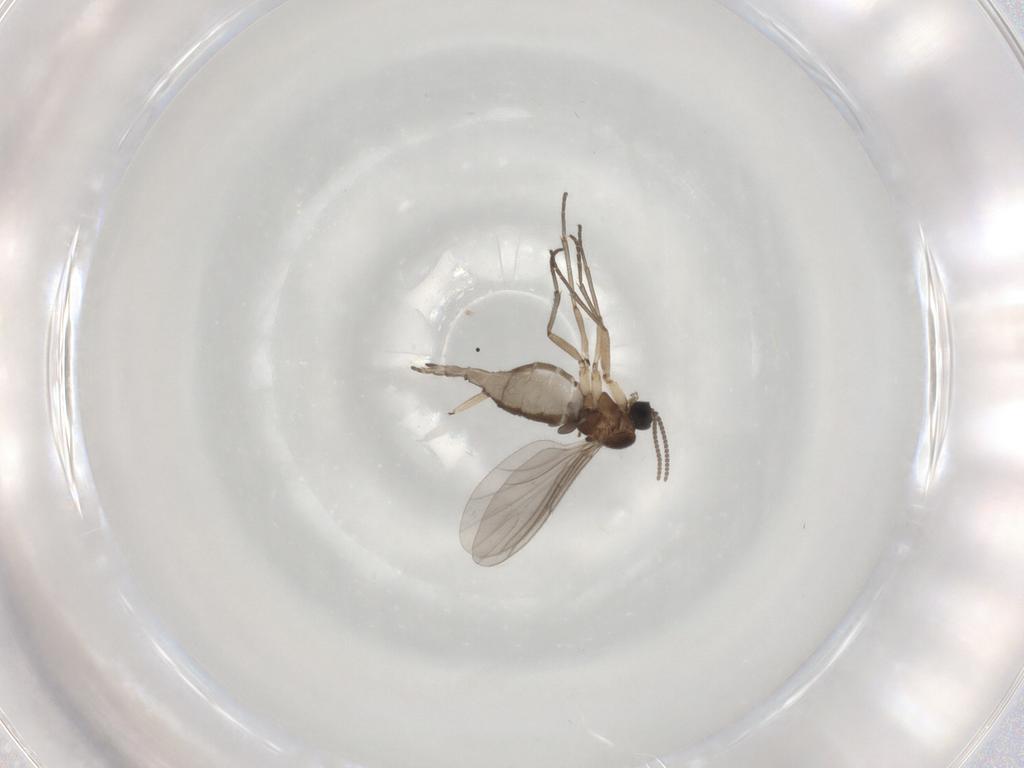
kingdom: Animalia
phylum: Arthropoda
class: Insecta
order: Diptera
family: Sciaridae
